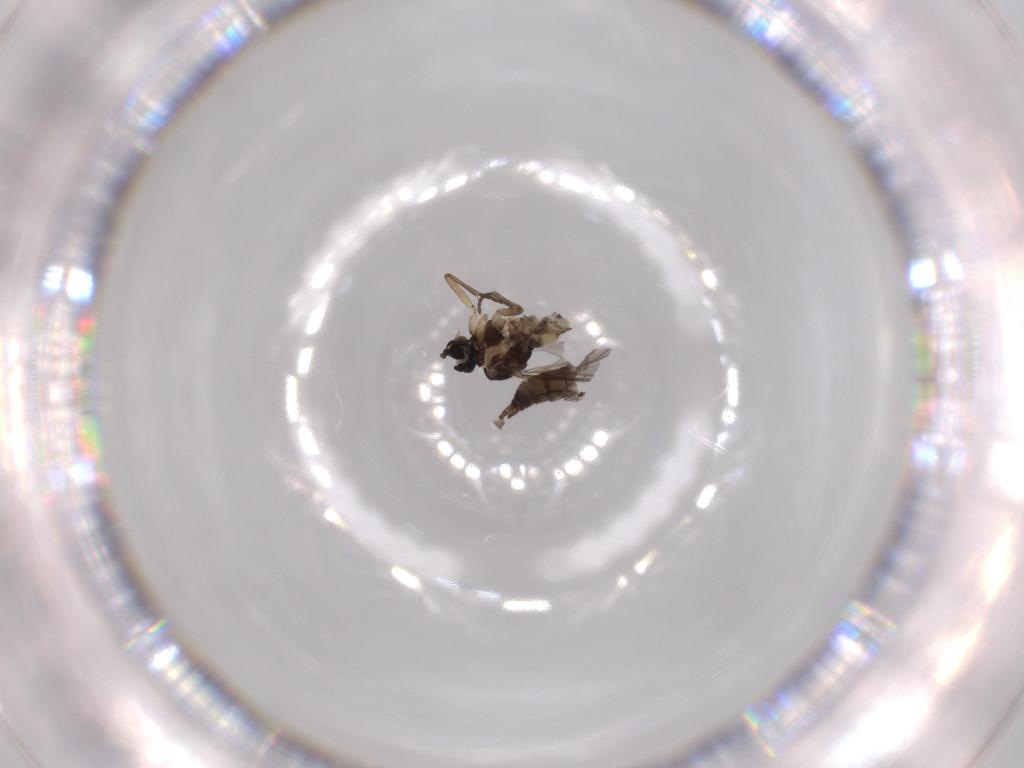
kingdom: Animalia
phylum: Arthropoda
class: Insecta
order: Diptera
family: Sciaridae
